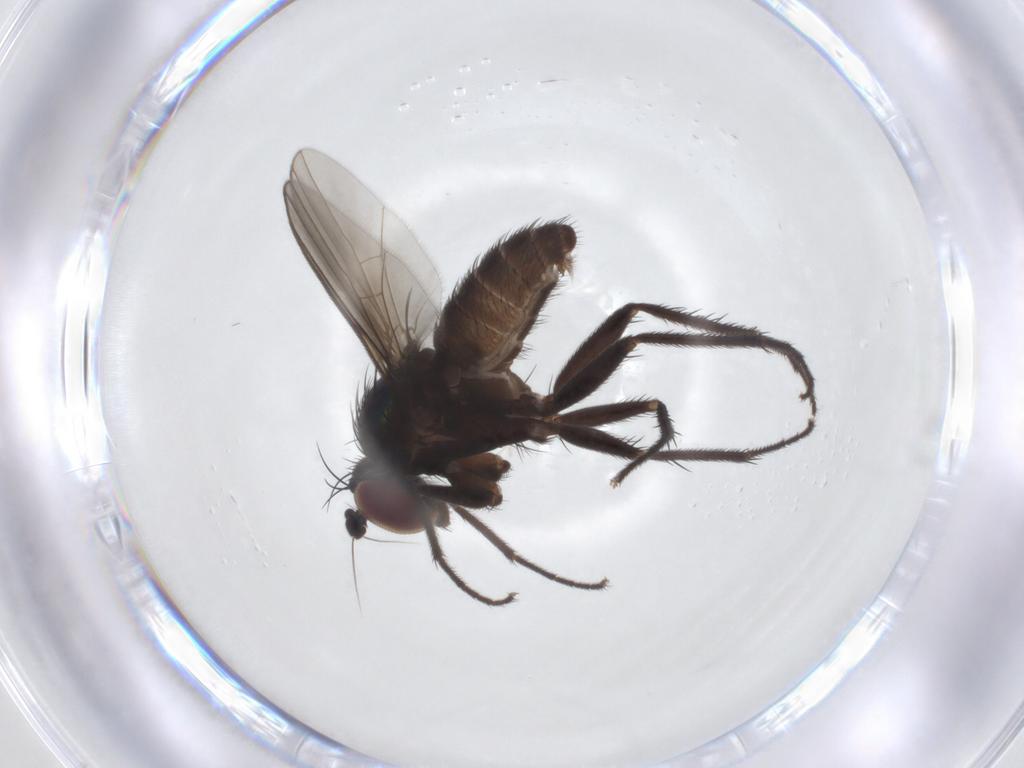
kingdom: Animalia
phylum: Arthropoda
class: Insecta
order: Diptera
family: Dolichopodidae
